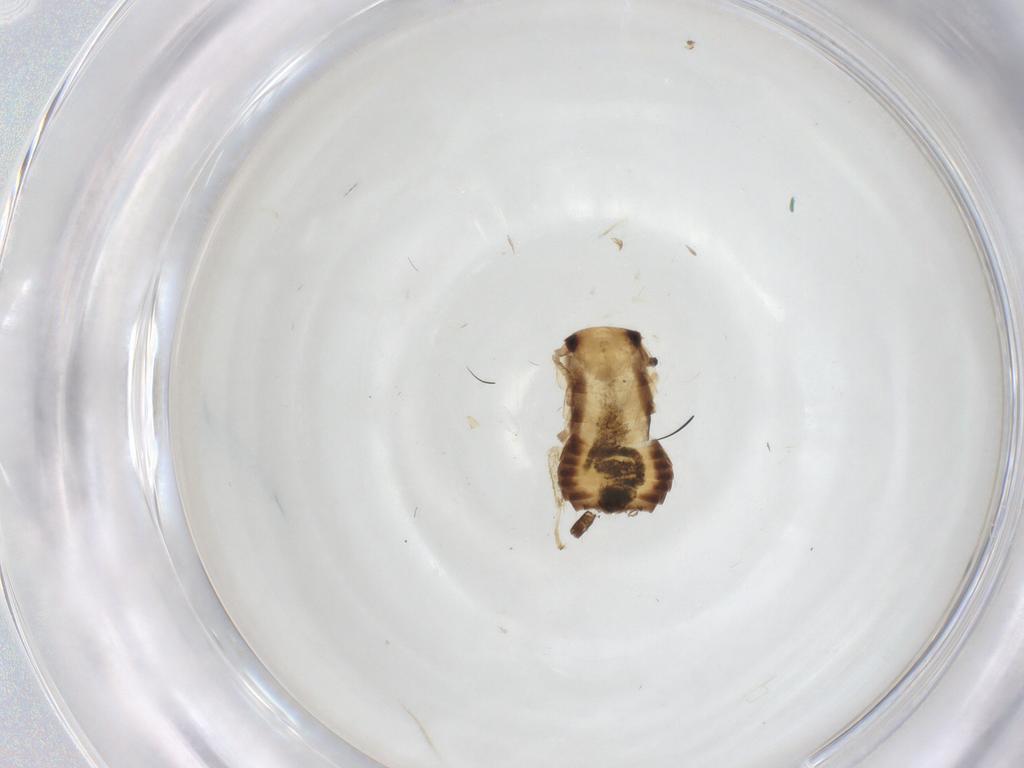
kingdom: Animalia
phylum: Arthropoda
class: Insecta
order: Blattodea
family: Ectobiidae
